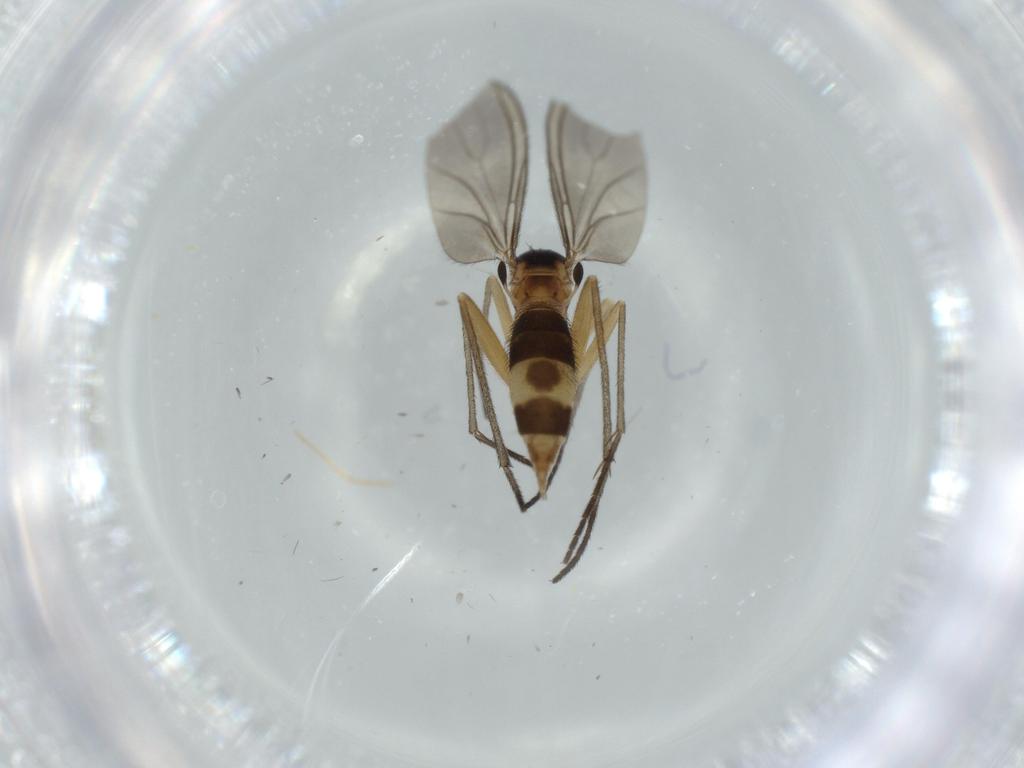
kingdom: Animalia
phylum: Arthropoda
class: Insecta
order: Diptera
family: Sciaridae
